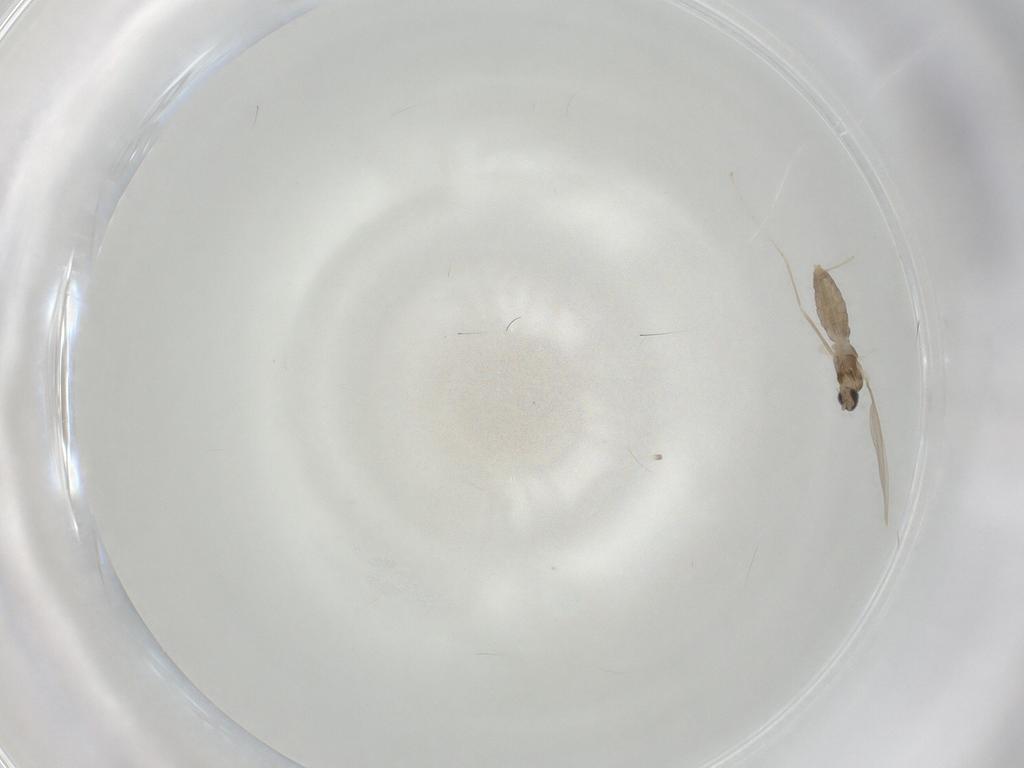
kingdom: Animalia
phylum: Arthropoda
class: Insecta
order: Diptera
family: Cecidomyiidae
